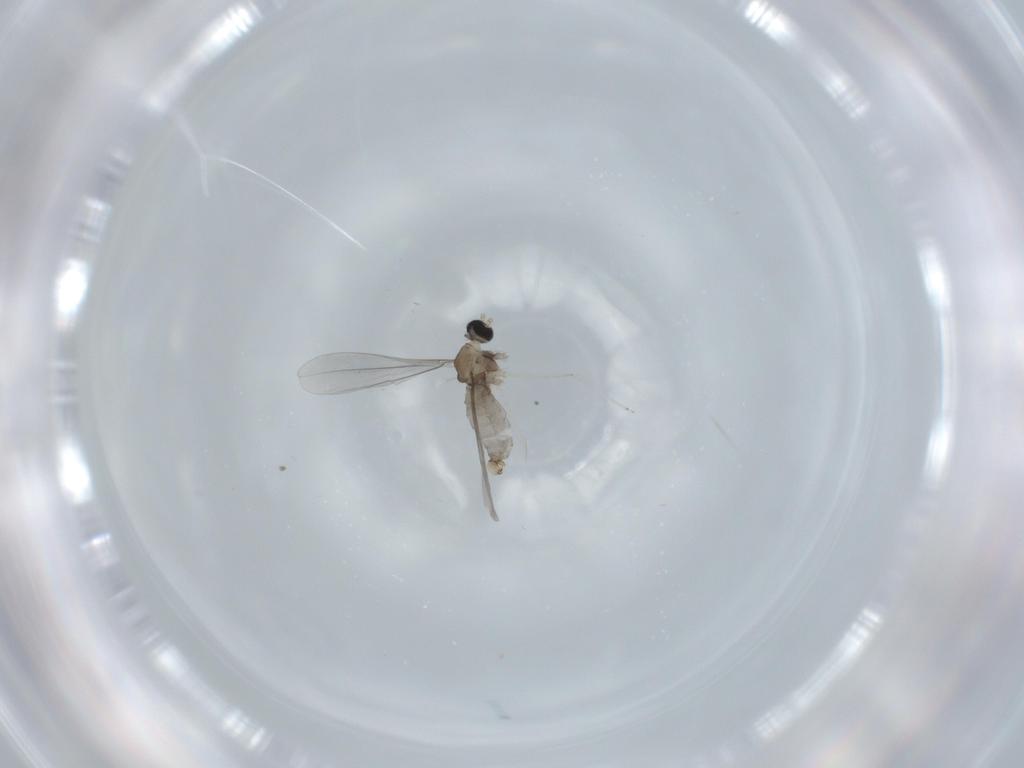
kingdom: Animalia
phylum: Arthropoda
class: Insecta
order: Diptera
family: Cecidomyiidae
